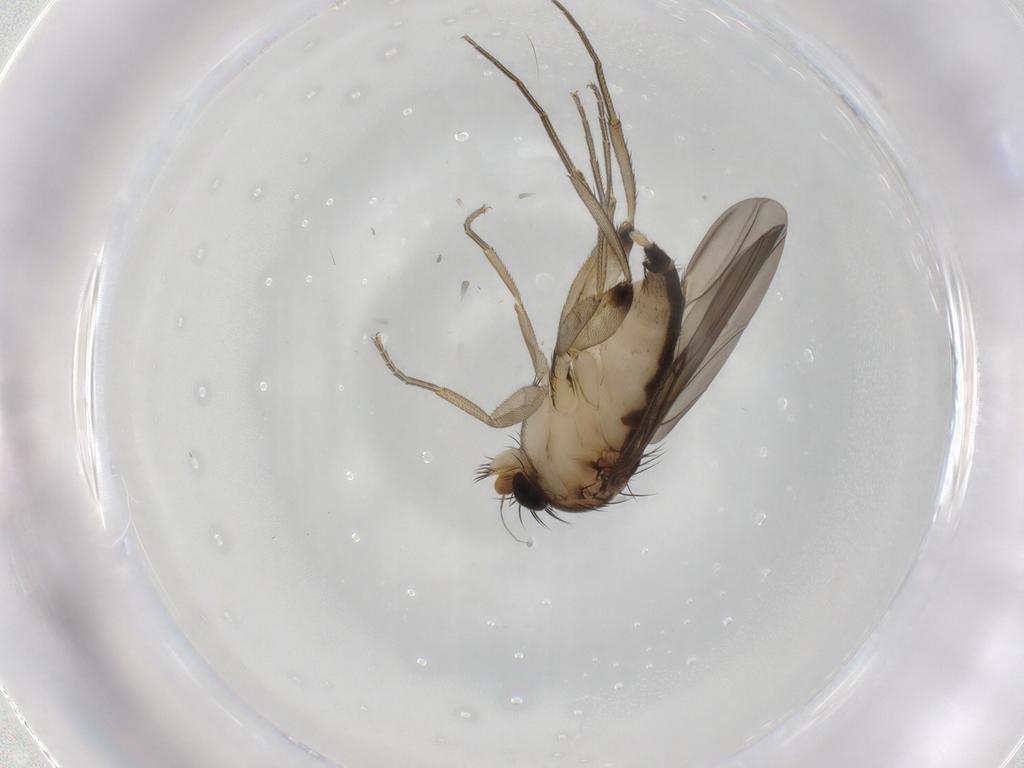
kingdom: Animalia
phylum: Arthropoda
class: Insecta
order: Diptera
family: Phoridae
